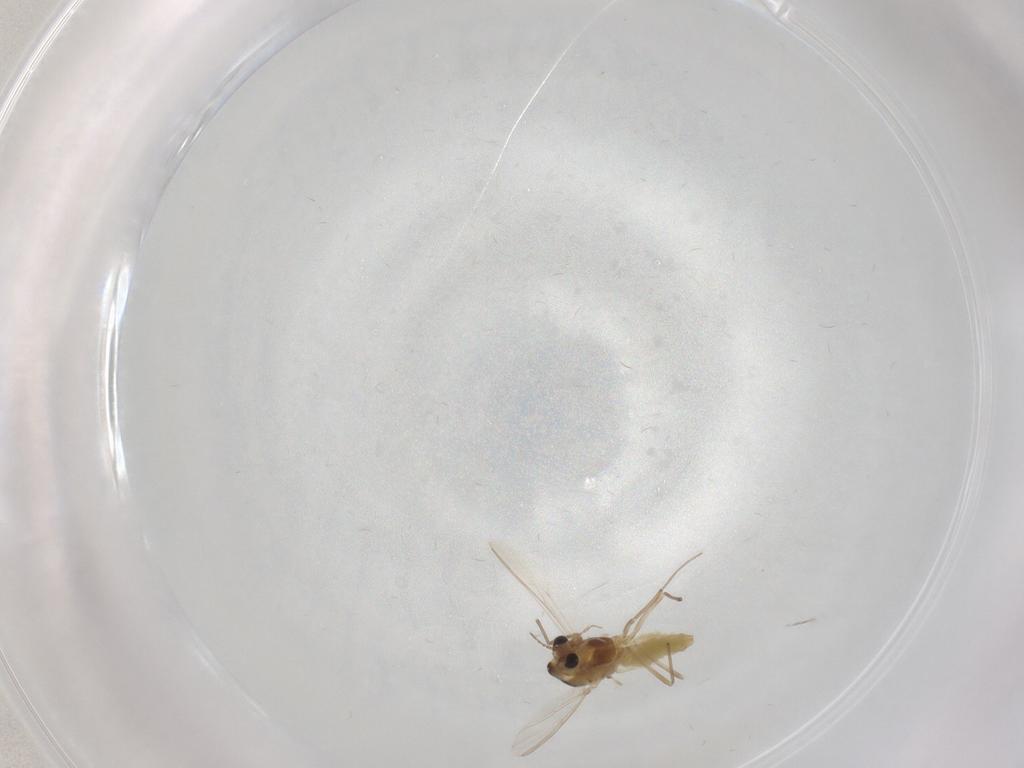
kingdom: Animalia
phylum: Arthropoda
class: Insecta
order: Diptera
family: Chironomidae
